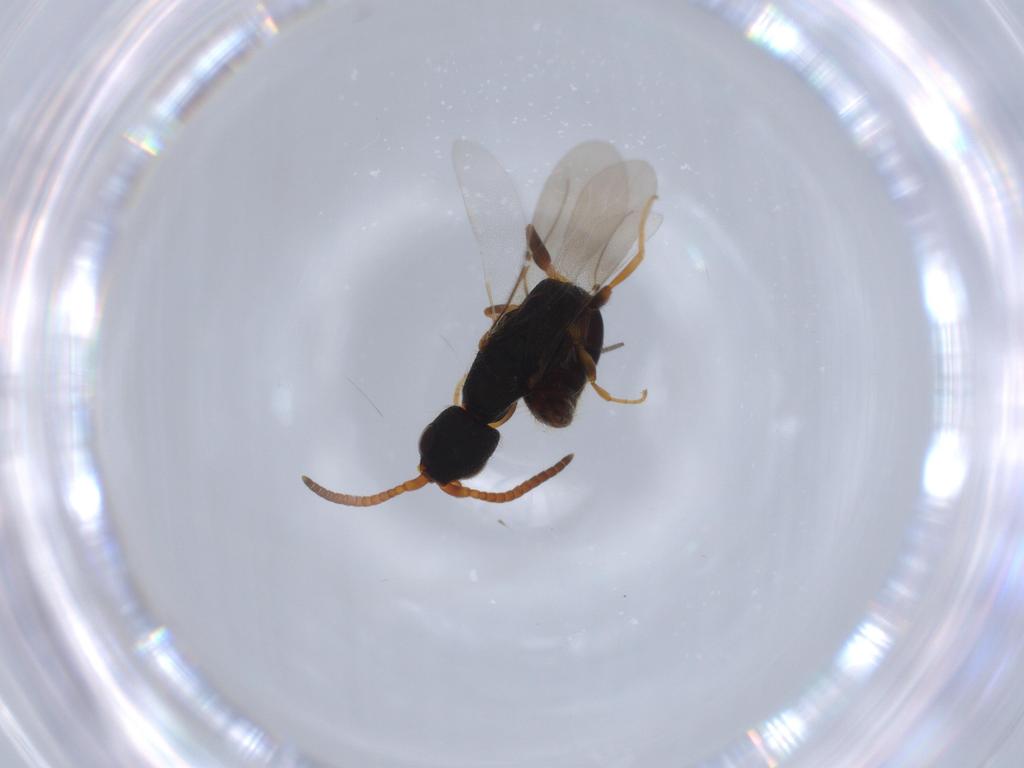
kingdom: Animalia
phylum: Arthropoda
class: Insecta
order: Hymenoptera
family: Bethylidae
